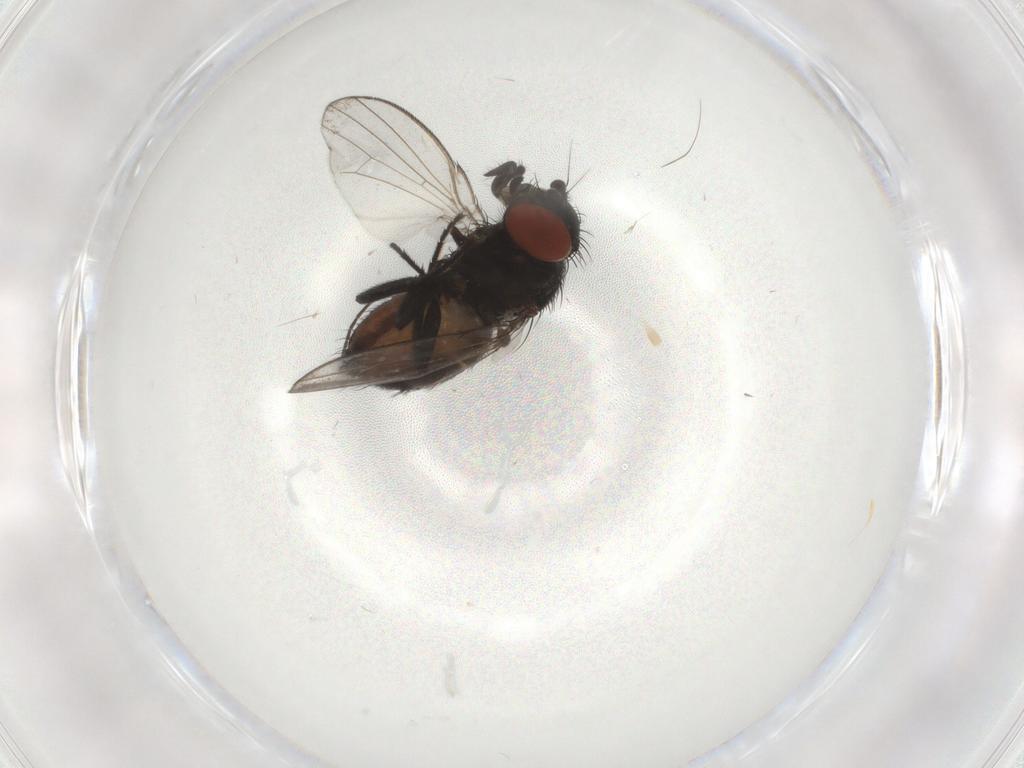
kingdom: Animalia
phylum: Arthropoda
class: Insecta
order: Diptera
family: Milichiidae
